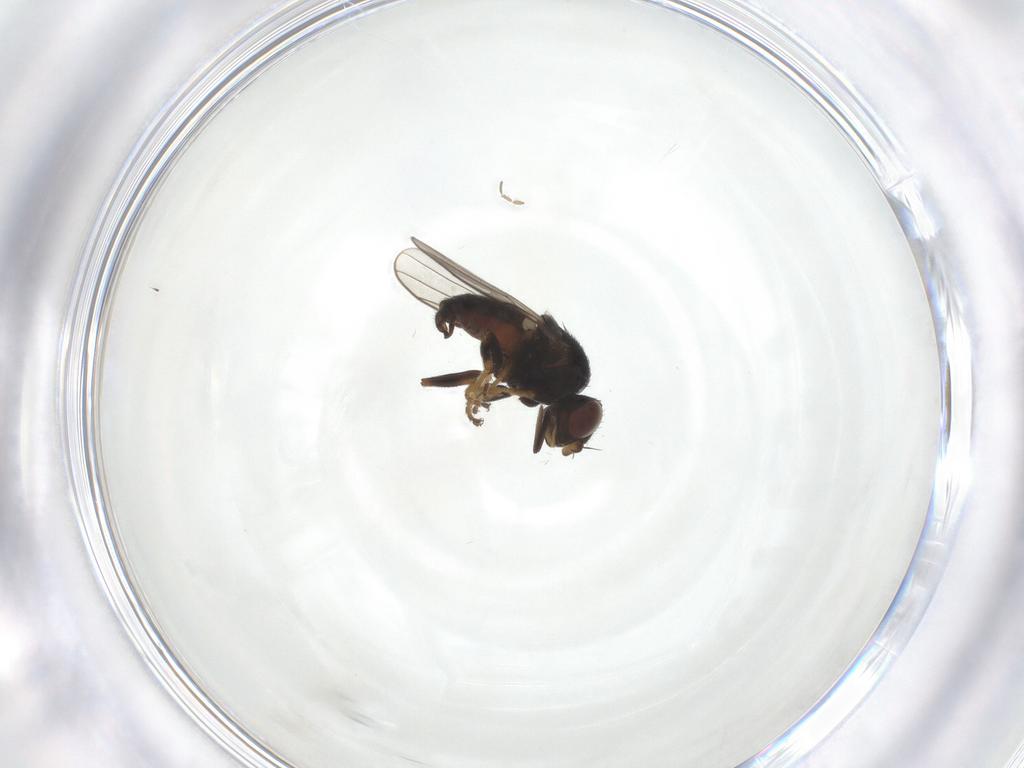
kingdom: Animalia
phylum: Arthropoda
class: Insecta
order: Diptera
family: Chloropidae
